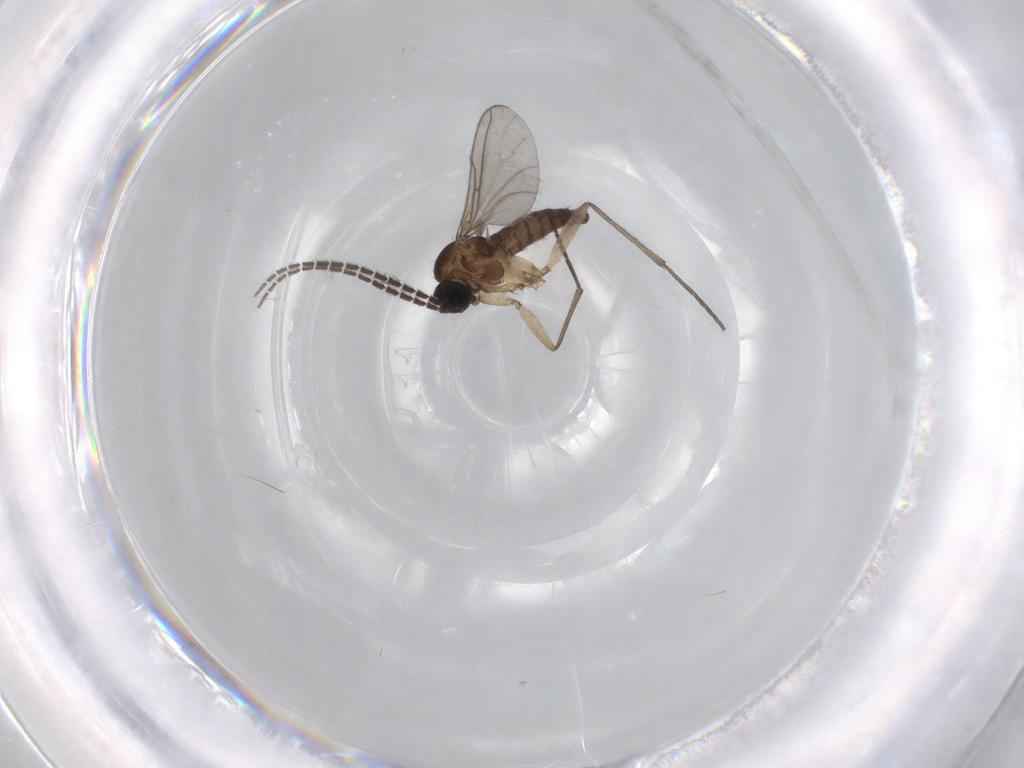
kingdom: Animalia
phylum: Arthropoda
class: Insecta
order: Diptera
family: Sciaridae
